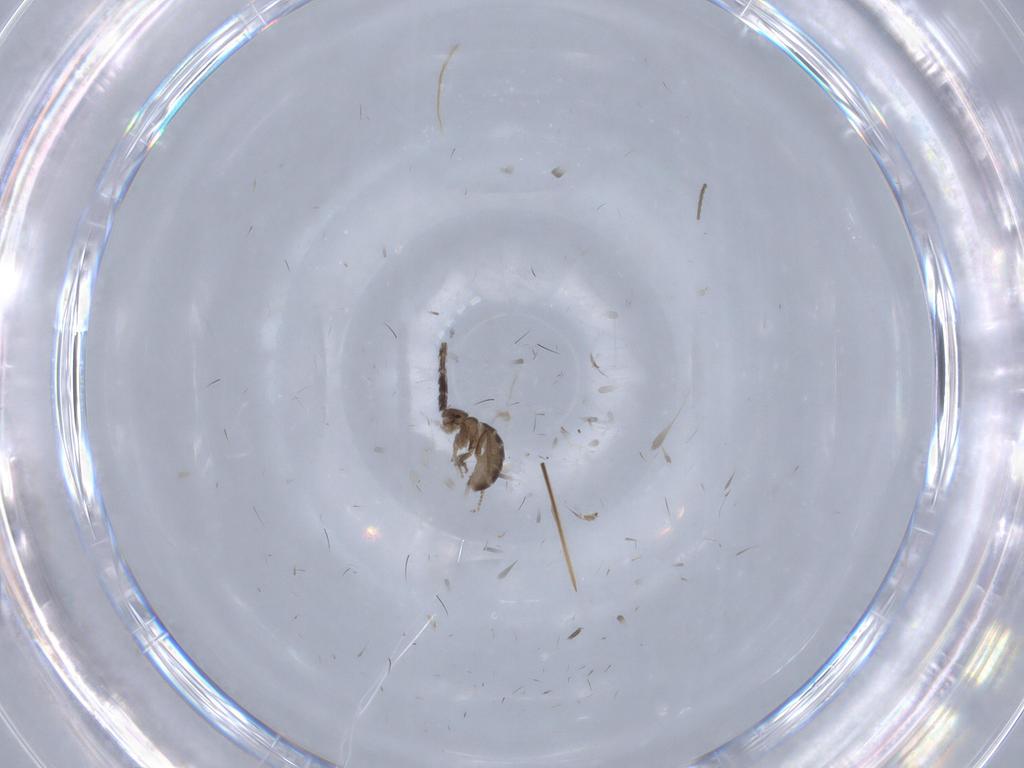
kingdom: Animalia
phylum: Arthropoda
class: Insecta
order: Diptera
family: Cecidomyiidae
